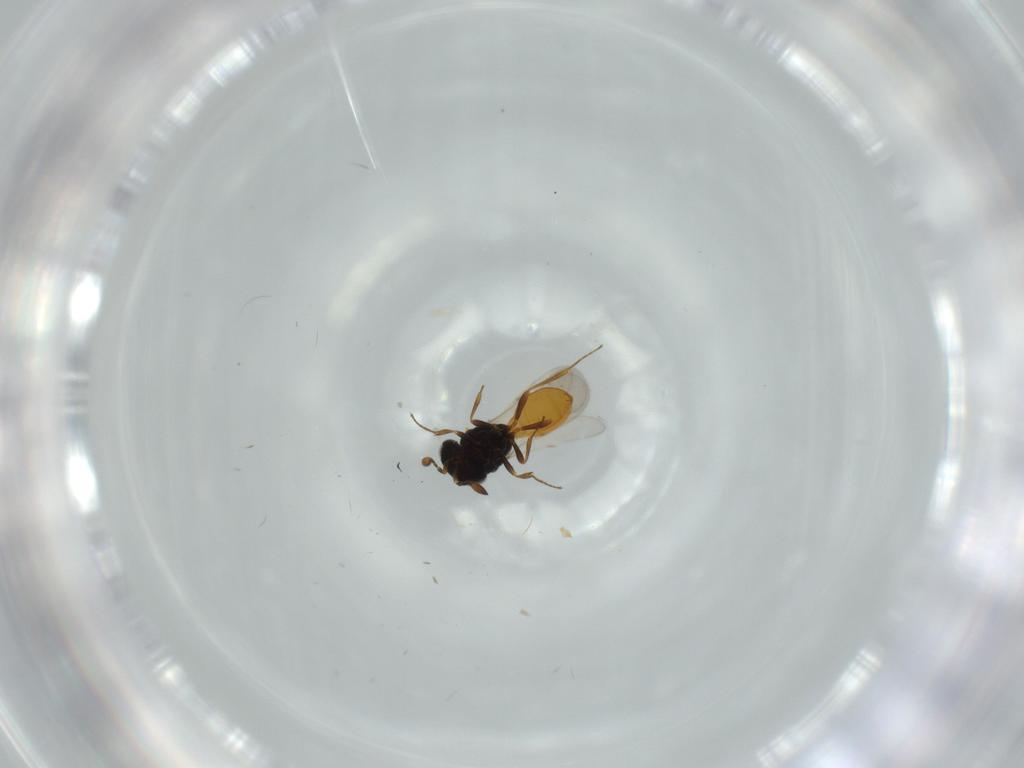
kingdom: Animalia
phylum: Arthropoda
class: Insecta
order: Hymenoptera
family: Scelionidae
